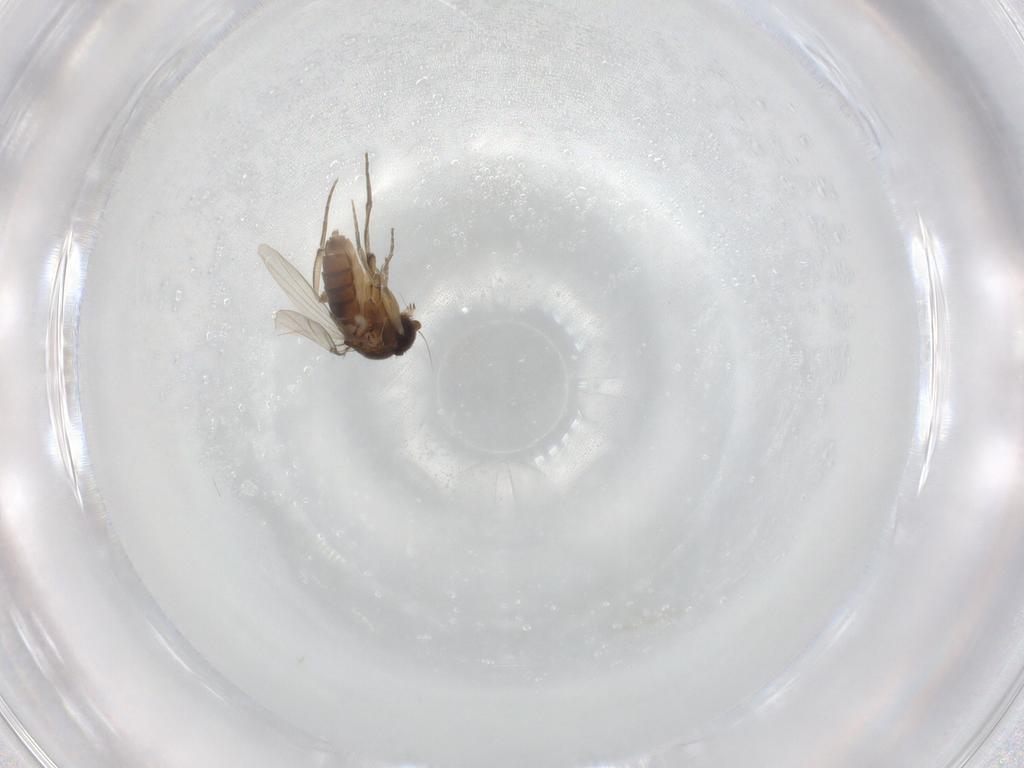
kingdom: Animalia
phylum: Arthropoda
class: Insecta
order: Diptera
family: Phoridae
